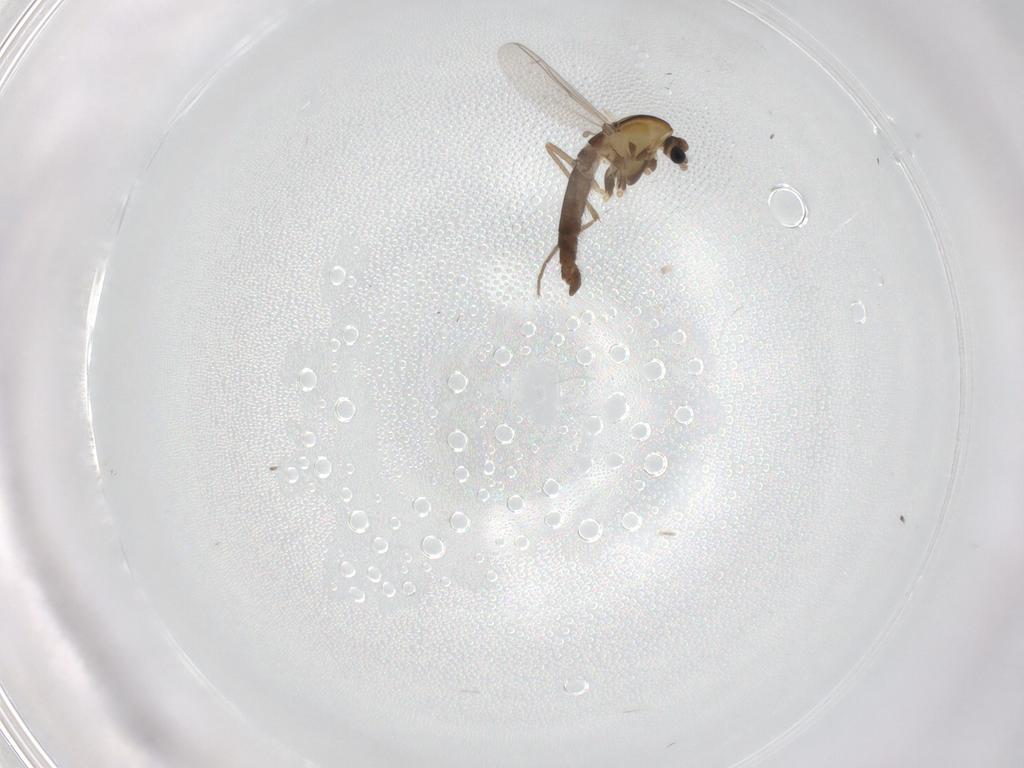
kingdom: Animalia
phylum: Arthropoda
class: Insecta
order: Diptera
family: Chironomidae
